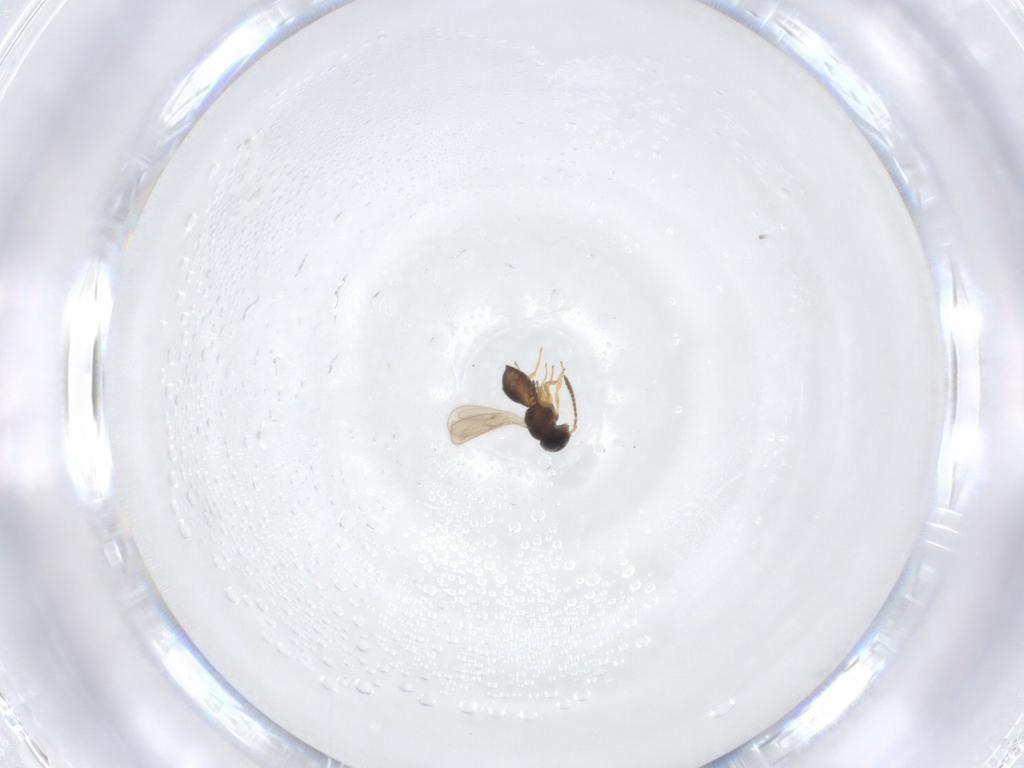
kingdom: Animalia
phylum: Arthropoda
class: Insecta
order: Hymenoptera
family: Scelionidae
